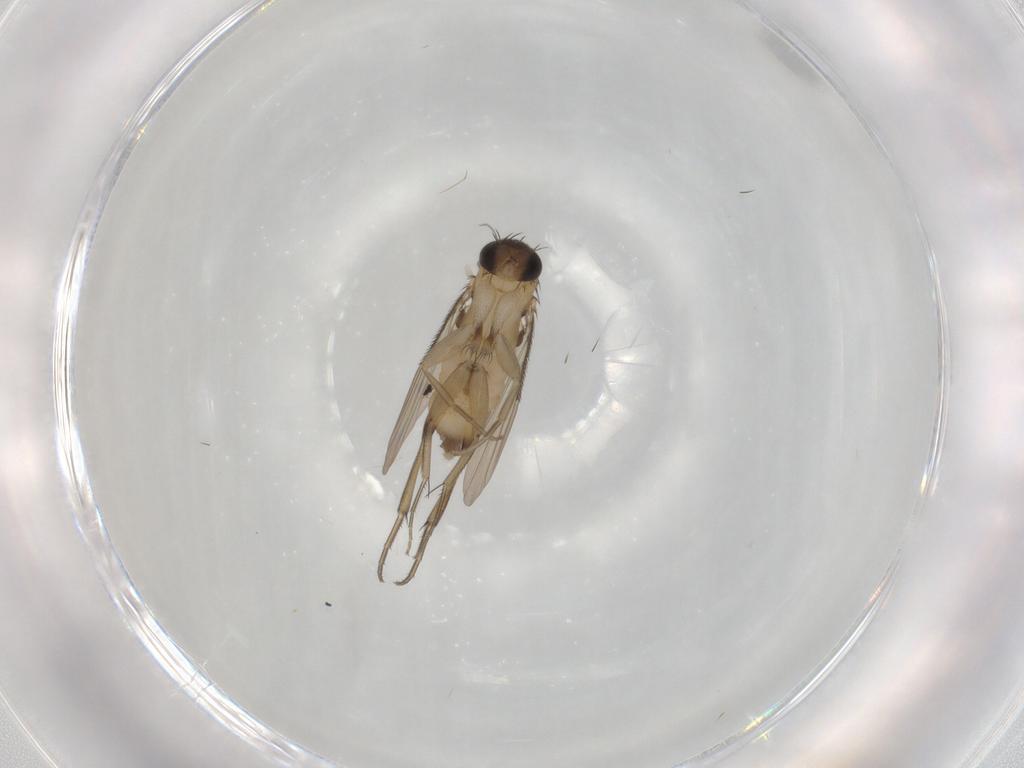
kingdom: Animalia
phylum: Arthropoda
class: Insecta
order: Diptera
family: Phoridae
